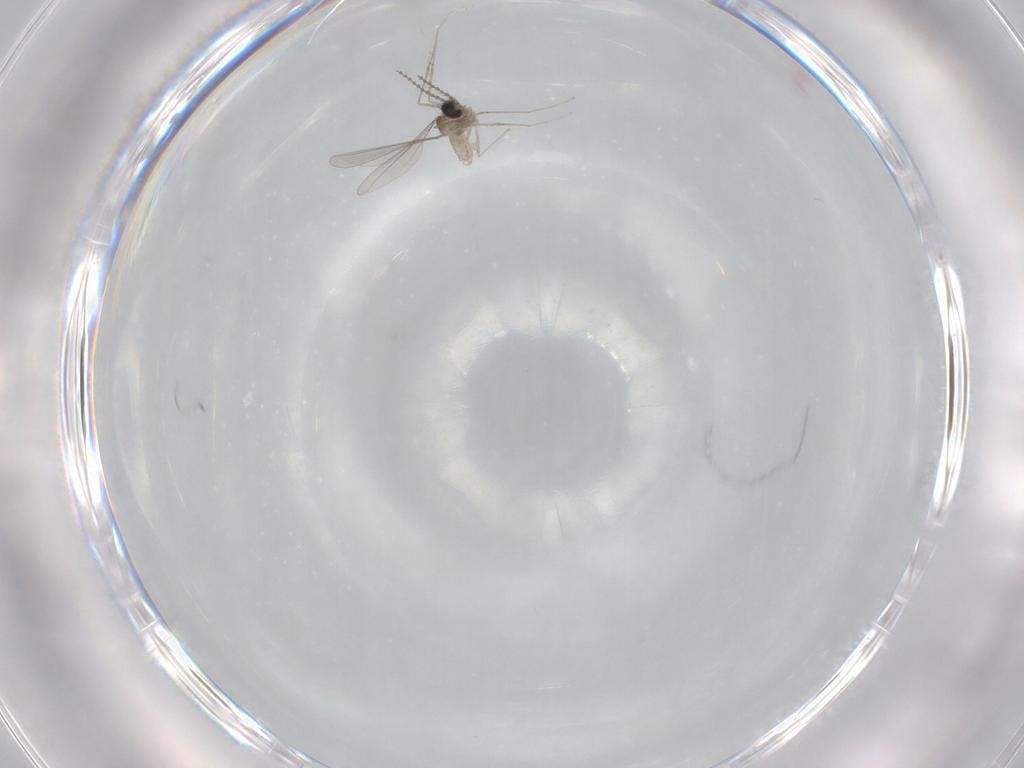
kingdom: Animalia
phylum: Arthropoda
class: Insecta
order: Diptera
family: Cecidomyiidae
